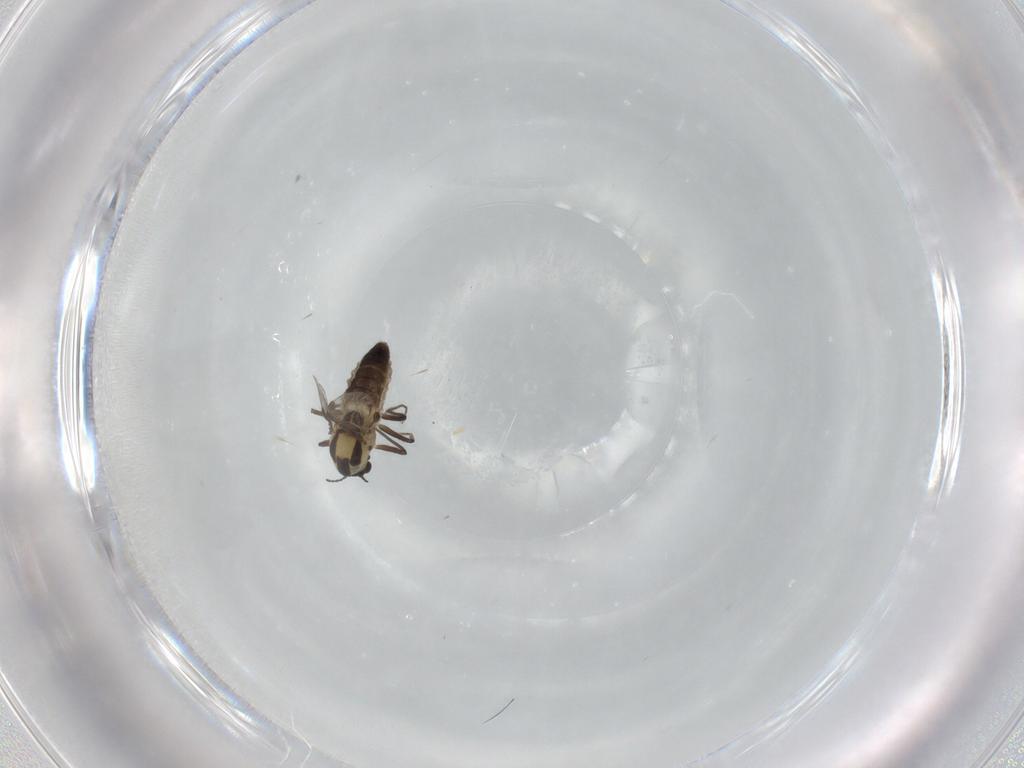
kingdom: Animalia
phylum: Arthropoda
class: Insecta
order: Diptera
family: Chironomidae
